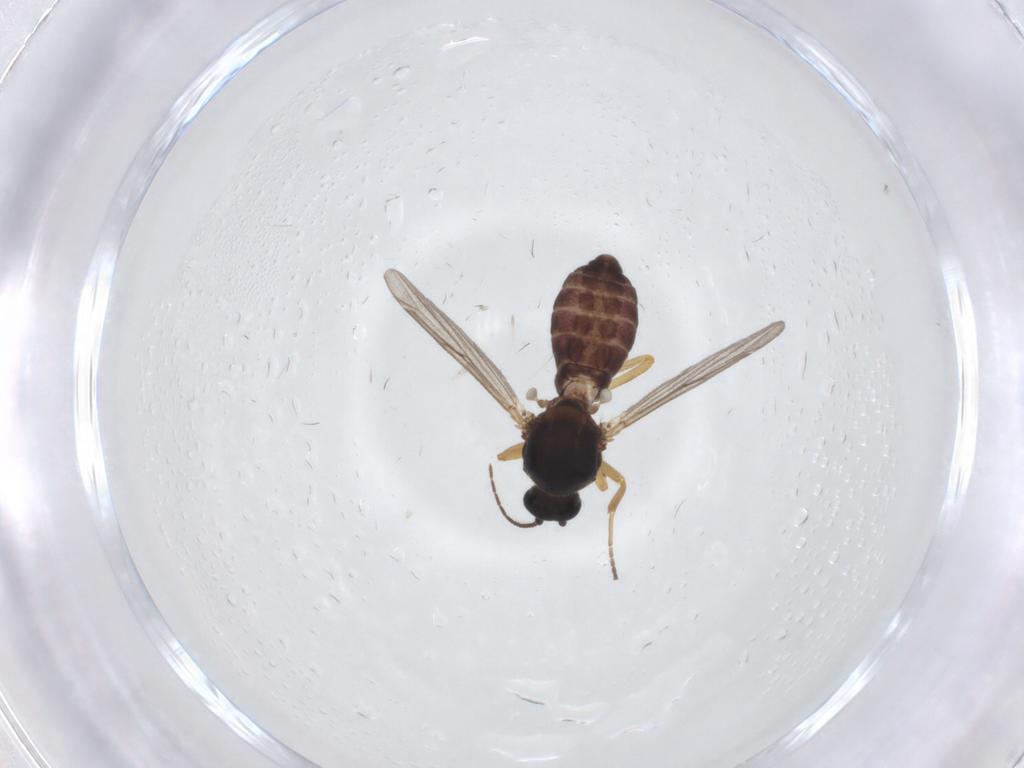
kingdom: Animalia
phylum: Arthropoda
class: Insecta
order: Diptera
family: Ceratopogonidae
